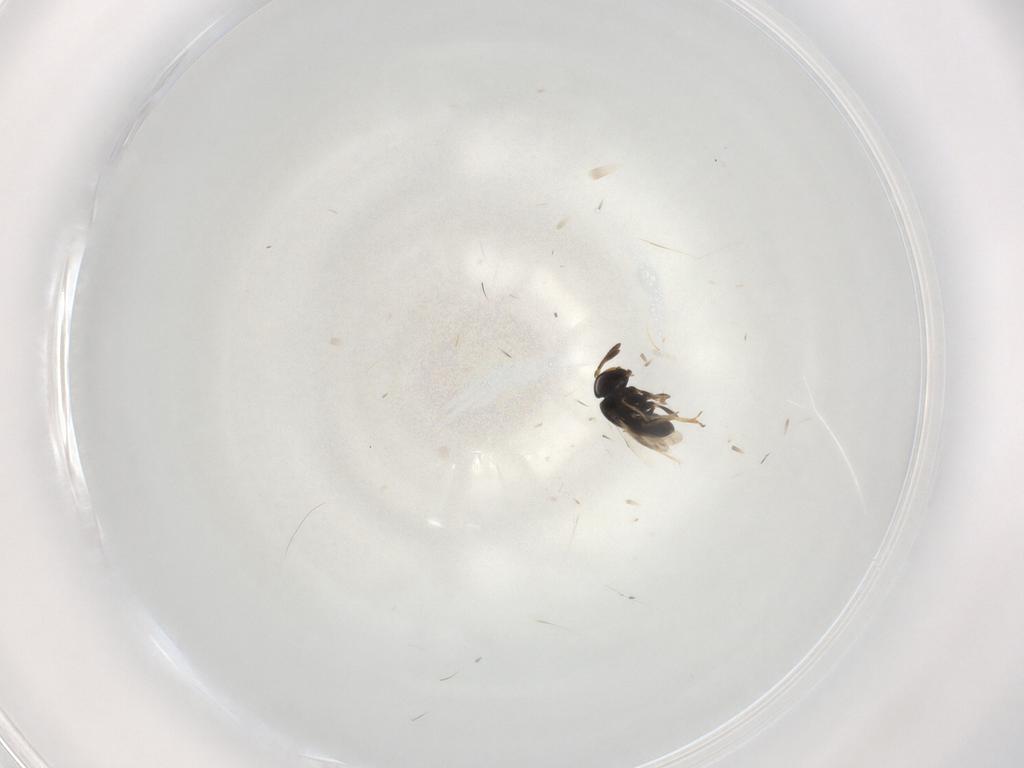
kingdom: Animalia
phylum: Arthropoda
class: Insecta
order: Hymenoptera
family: Scelionidae
